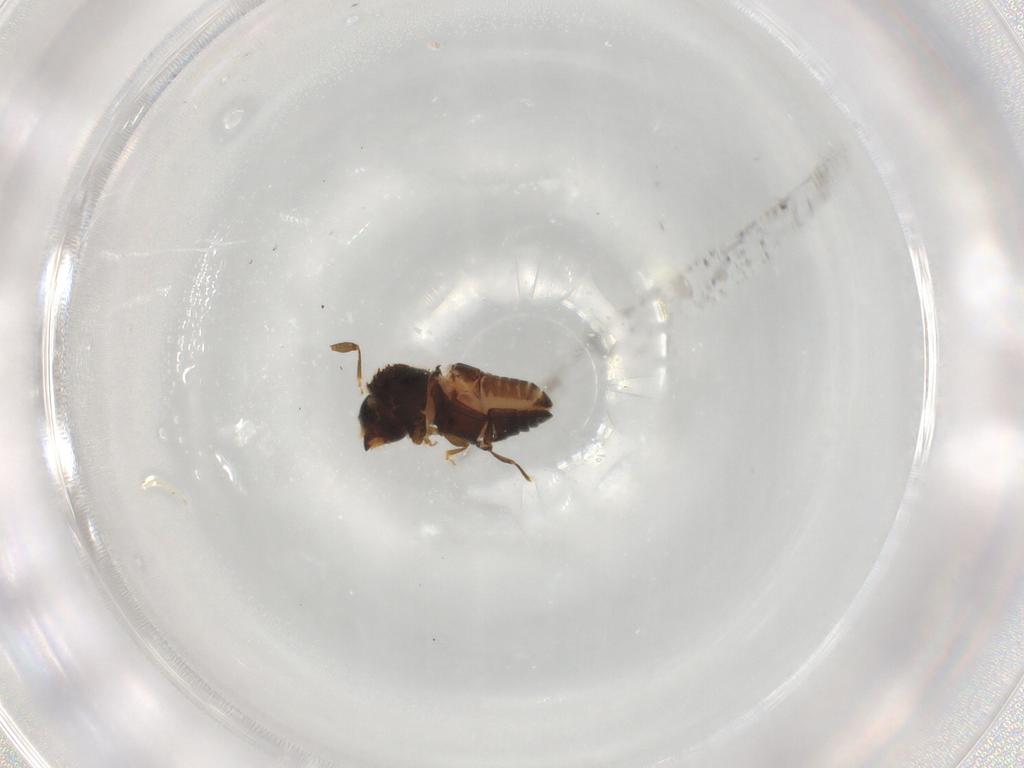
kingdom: Animalia
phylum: Arthropoda
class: Insecta
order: Coleoptera
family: Curculionidae
